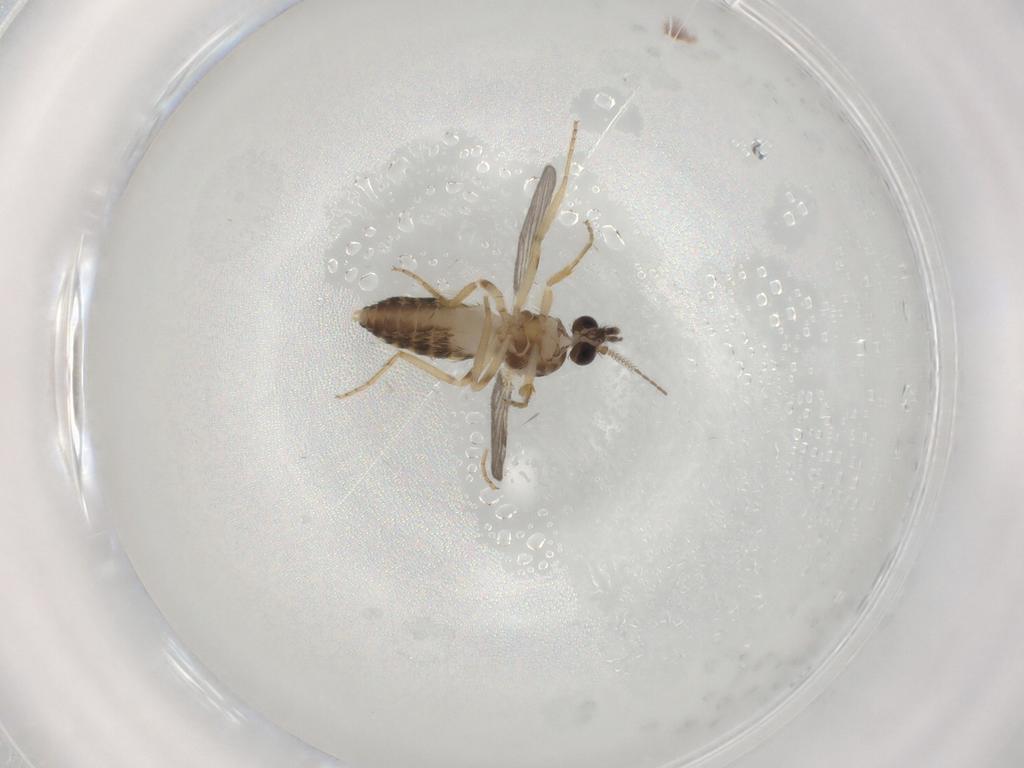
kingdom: Animalia
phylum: Arthropoda
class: Insecta
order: Diptera
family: Ceratopogonidae
